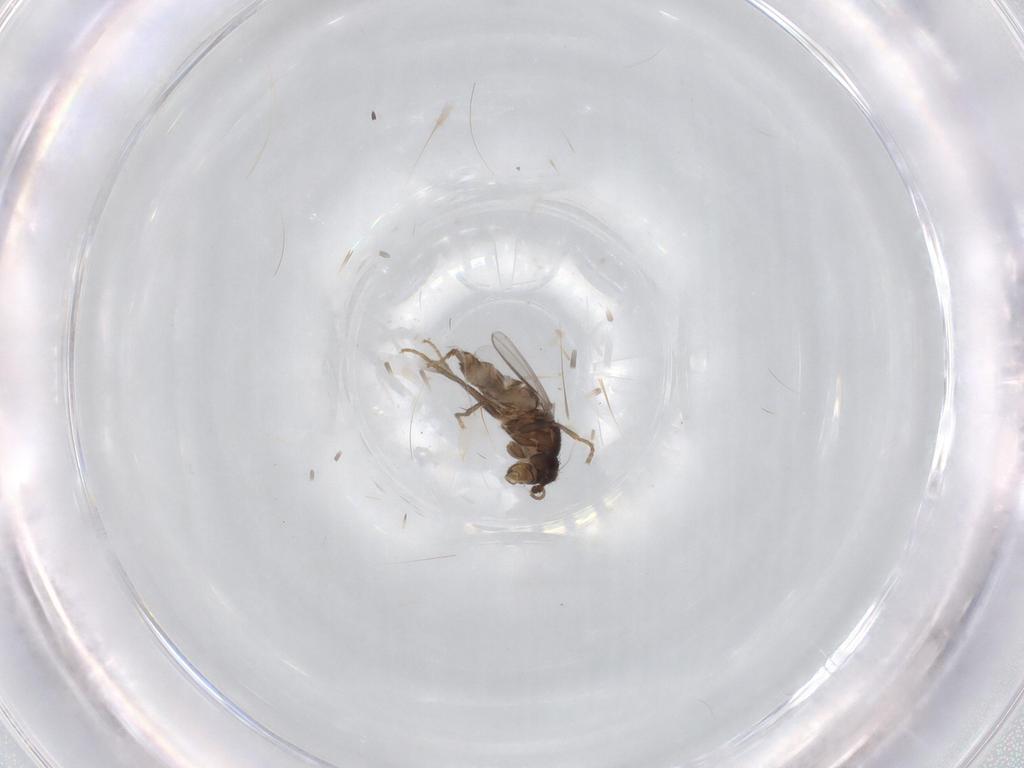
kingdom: Animalia
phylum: Arthropoda
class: Insecta
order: Diptera
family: Sphaeroceridae
